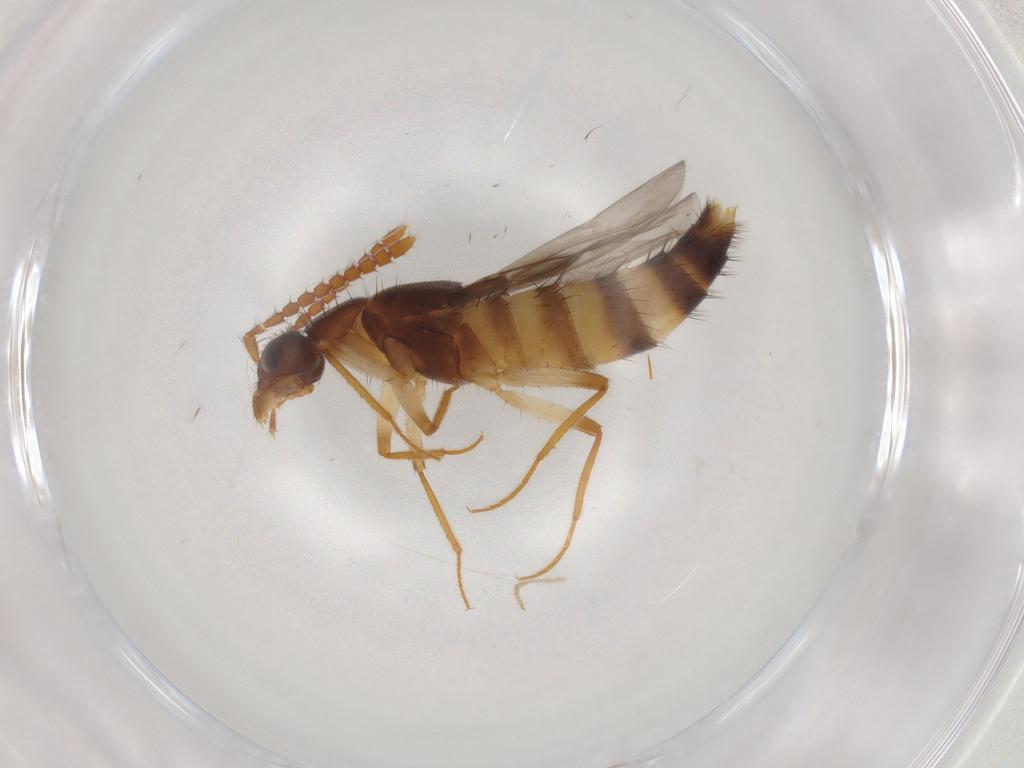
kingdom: Animalia
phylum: Arthropoda
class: Insecta
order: Coleoptera
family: Staphylinidae
